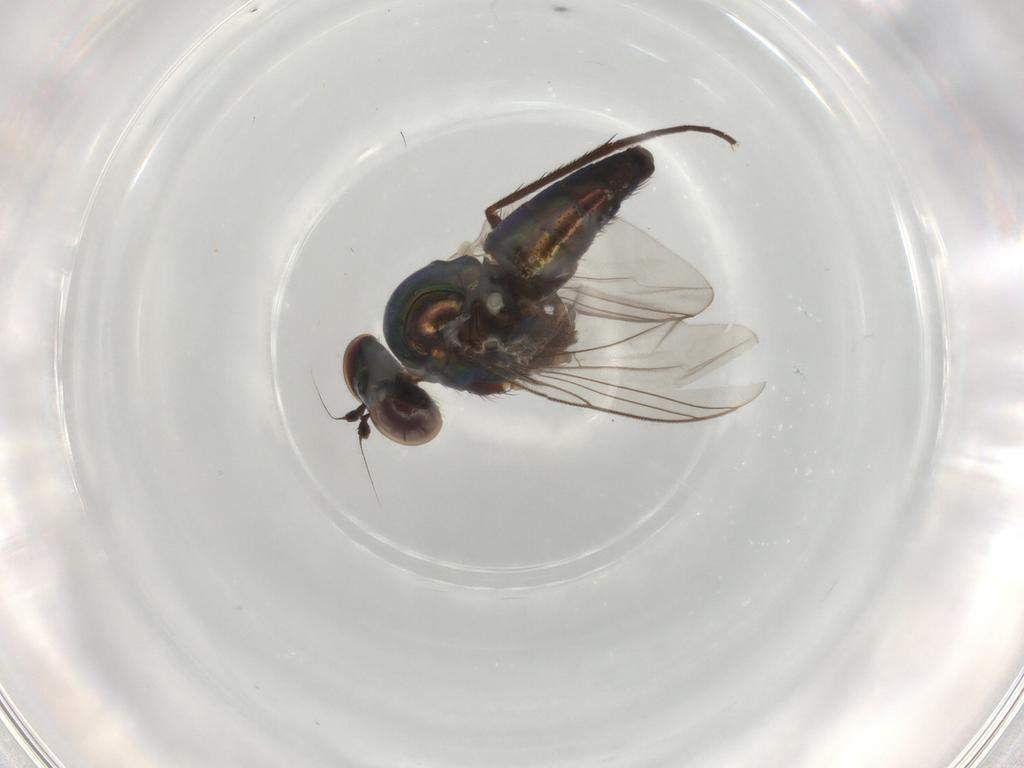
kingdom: Animalia
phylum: Arthropoda
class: Insecta
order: Diptera
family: Dolichopodidae
